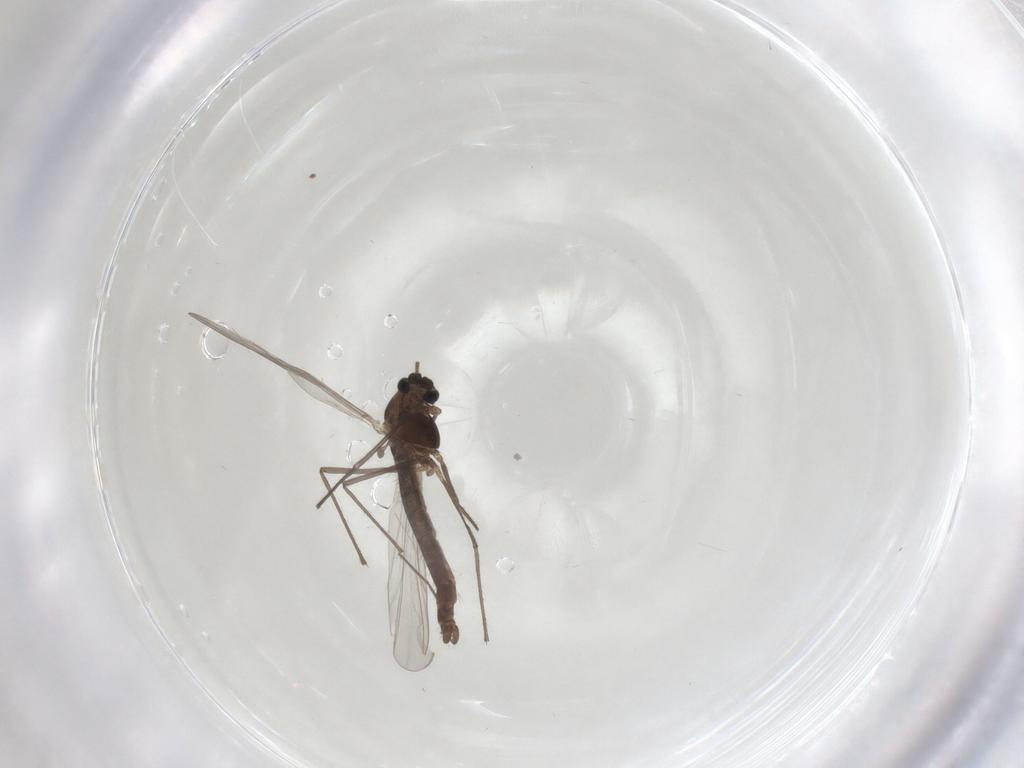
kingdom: Animalia
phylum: Arthropoda
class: Insecta
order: Diptera
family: Chironomidae
